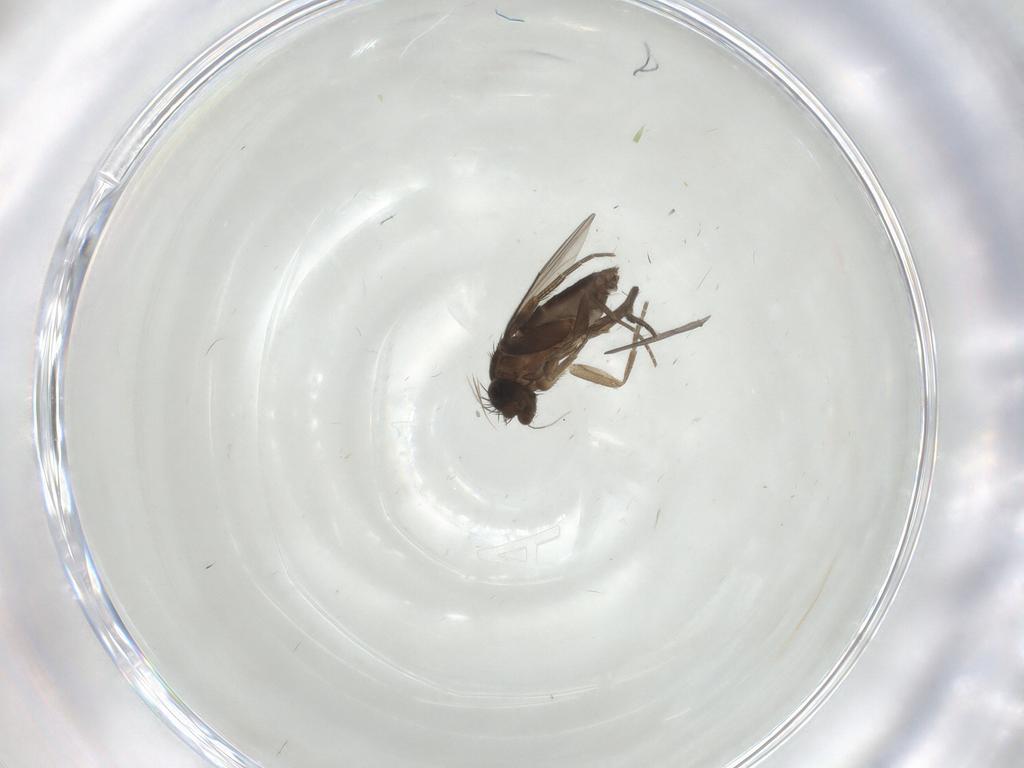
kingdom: Animalia
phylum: Arthropoda
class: Insecta
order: Diptera
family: Phoridae
